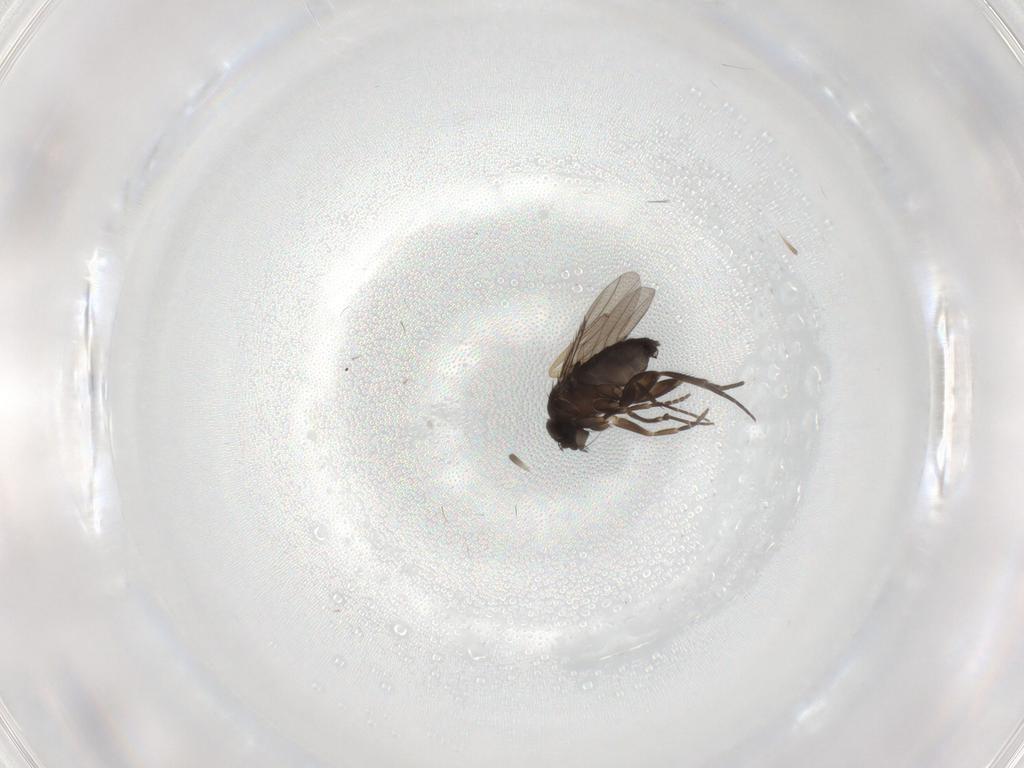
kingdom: Animalia
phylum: Arthropoda
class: Insecta
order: Diptera
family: Phoridae
